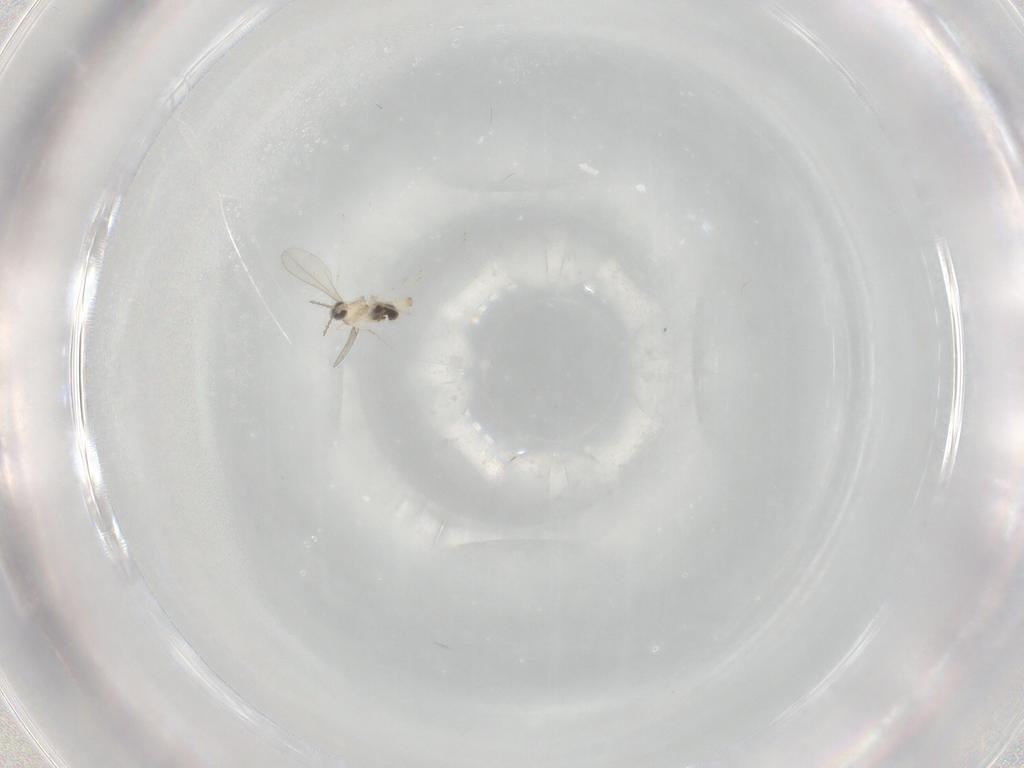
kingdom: Animalia
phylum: Arthropoda
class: Insecta
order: Diptera
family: Cecidomyiidae
